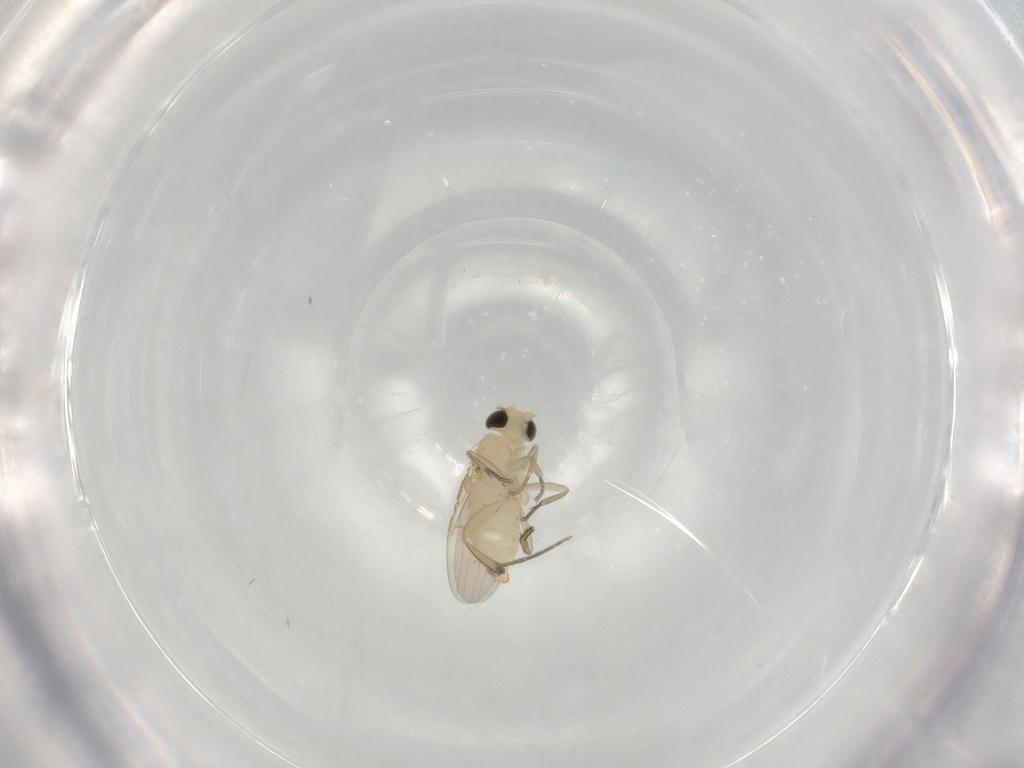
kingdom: Animalia
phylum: Arthropoda
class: Insecta
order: Diptera
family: Phoridae
